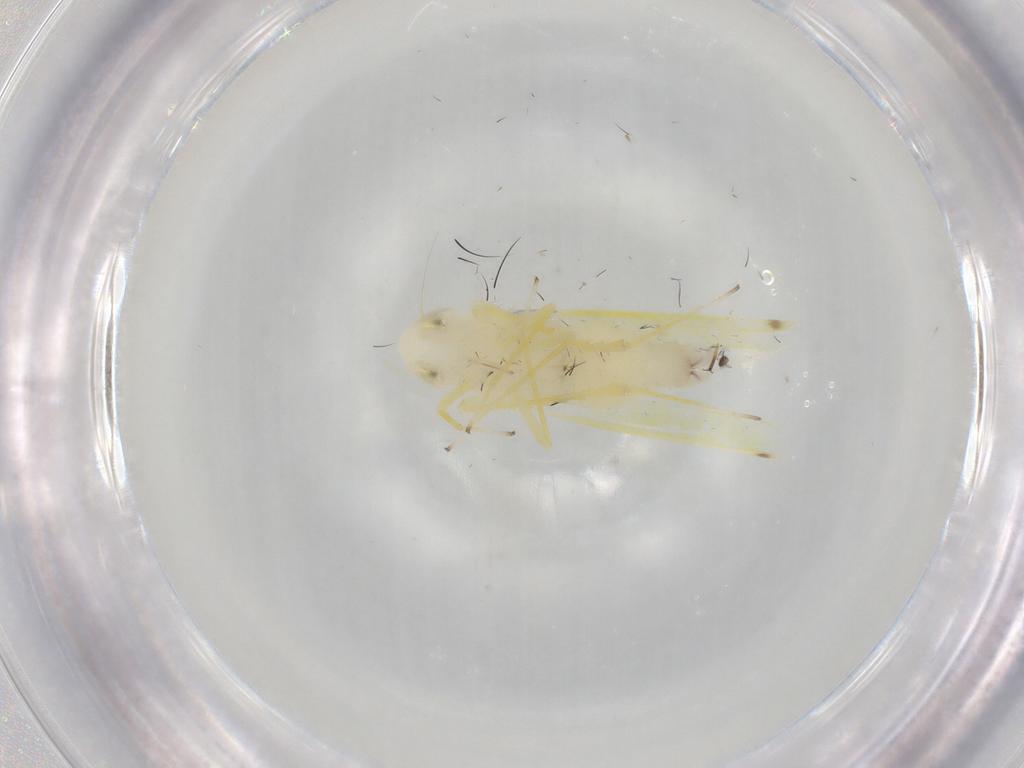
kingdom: Animalia
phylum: Arthropoda
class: Insecta
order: Hemiptera
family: Cicadellidae
